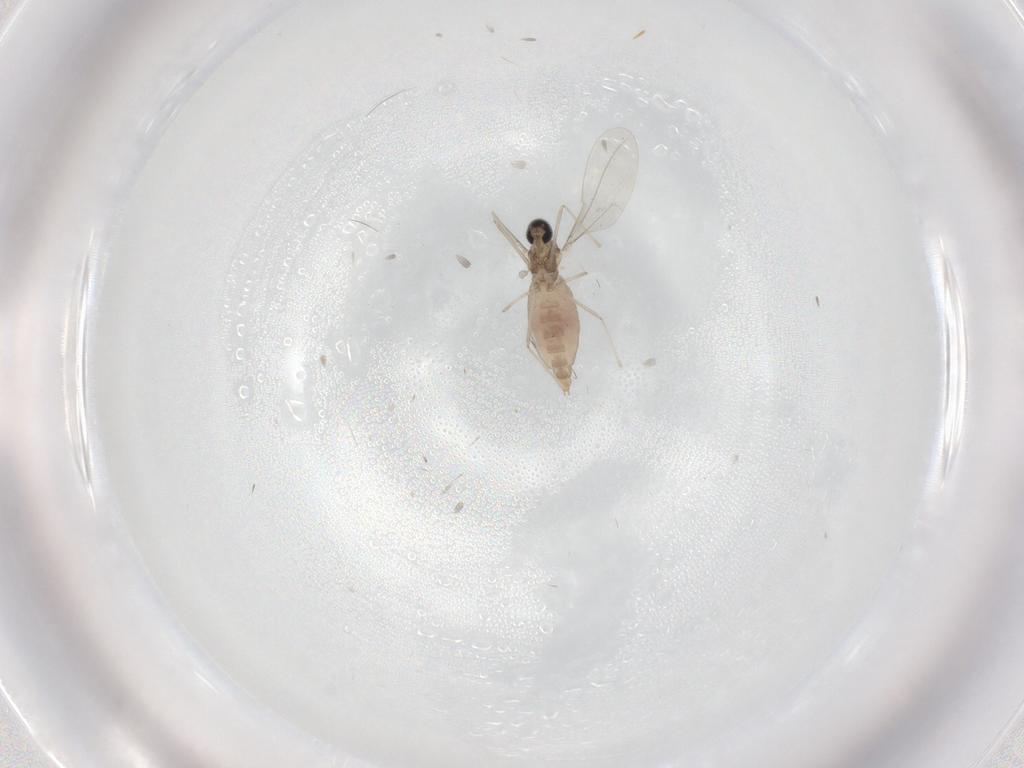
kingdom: Animalia
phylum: Arthropoda
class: Insecta
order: Diptera
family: Cecidomyiidae
